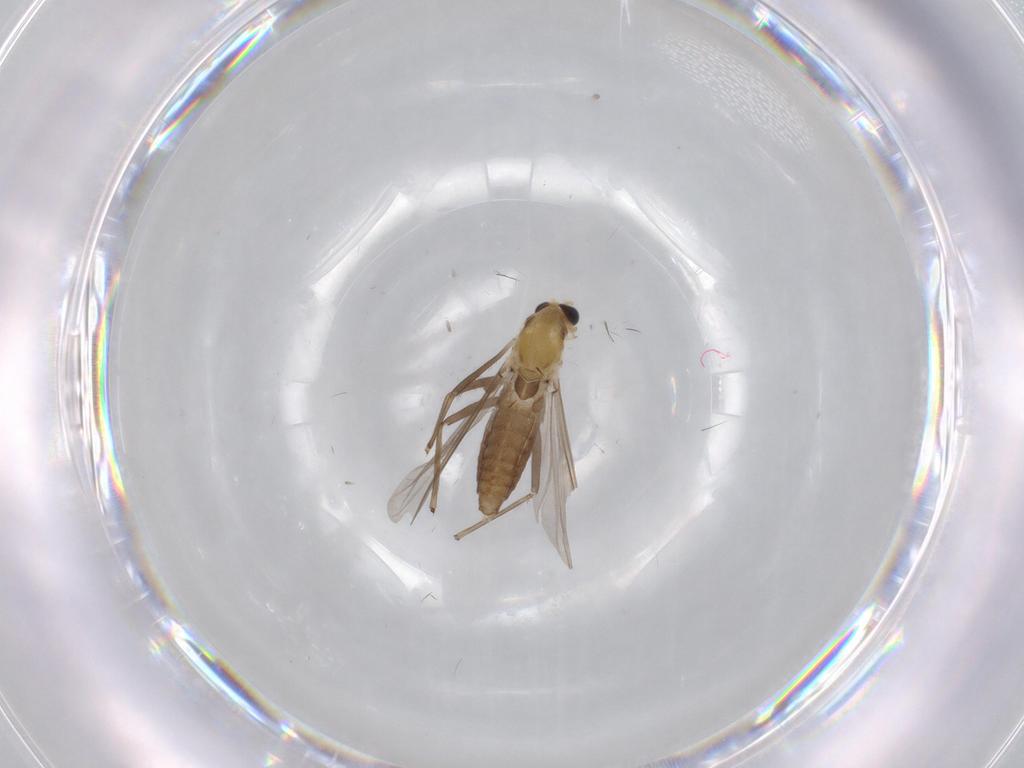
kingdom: Animalia
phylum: Arthropoda
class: Insecta
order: Diptera
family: Chironomidae
